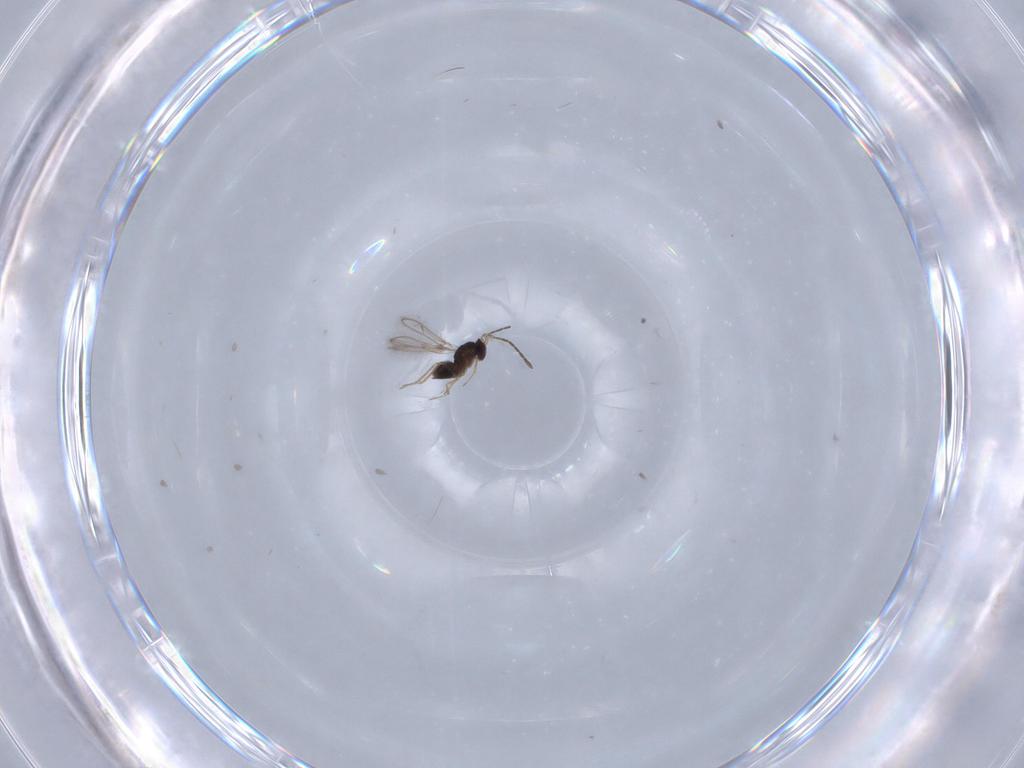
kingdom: Animalia
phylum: Arthropoda
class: Insecta
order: Hymenoptera
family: Mymaridae
